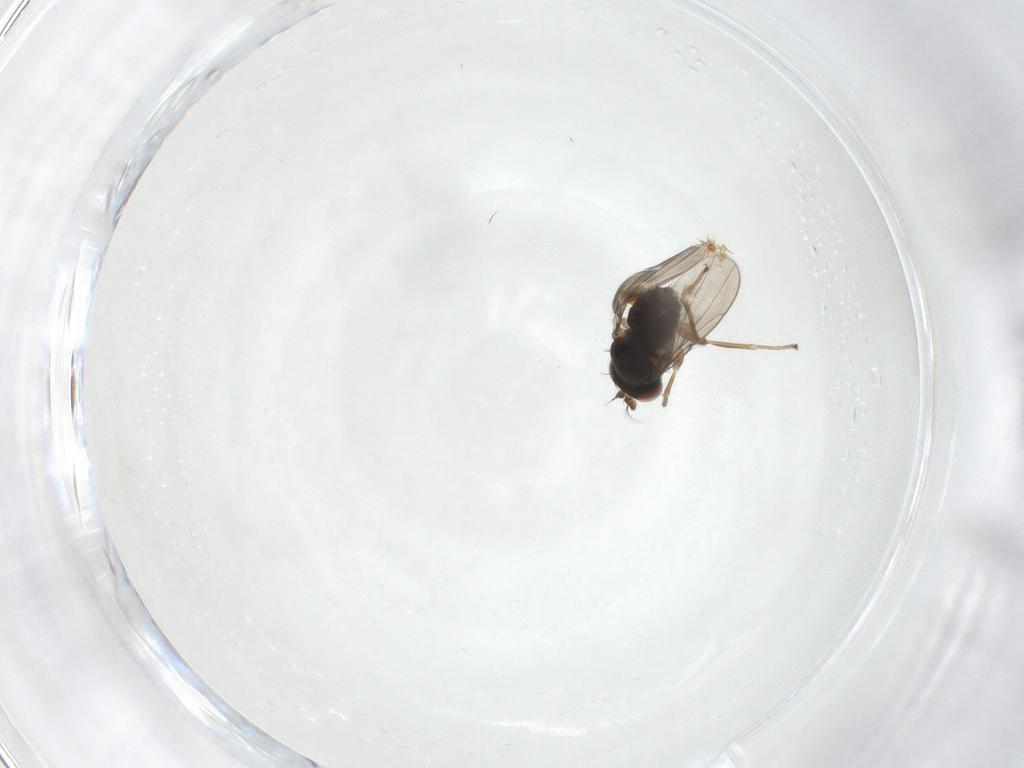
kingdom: Animalia
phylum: Arthropoda
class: Insecta
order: Diptera
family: Ephydridae
